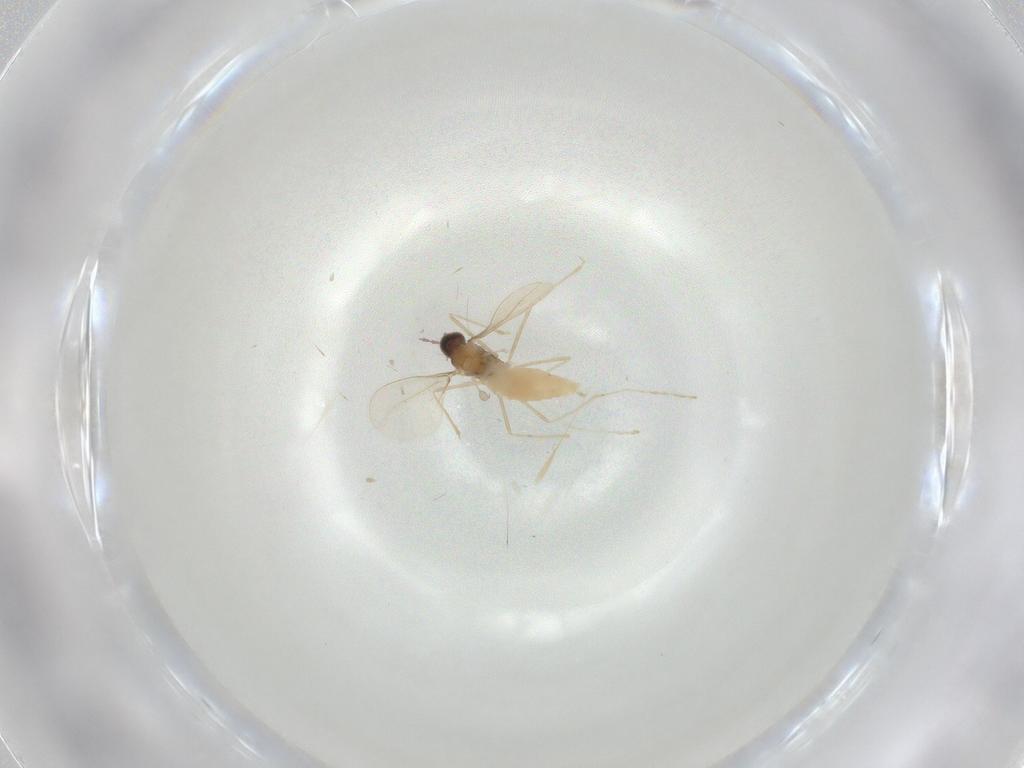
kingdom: Animalia
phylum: Arthropoda
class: Insecta
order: Diptera
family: Cecidomyiidae
